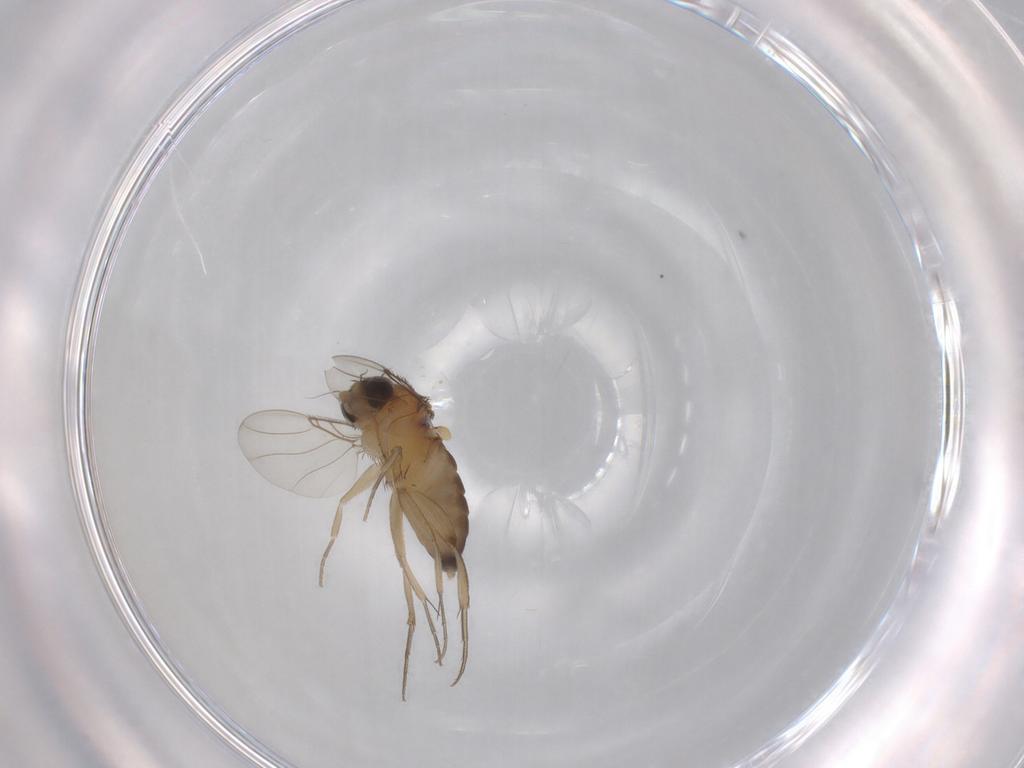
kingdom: Animalia
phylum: Arthropoda
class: Insecta
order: Diptera
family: Phoridae
